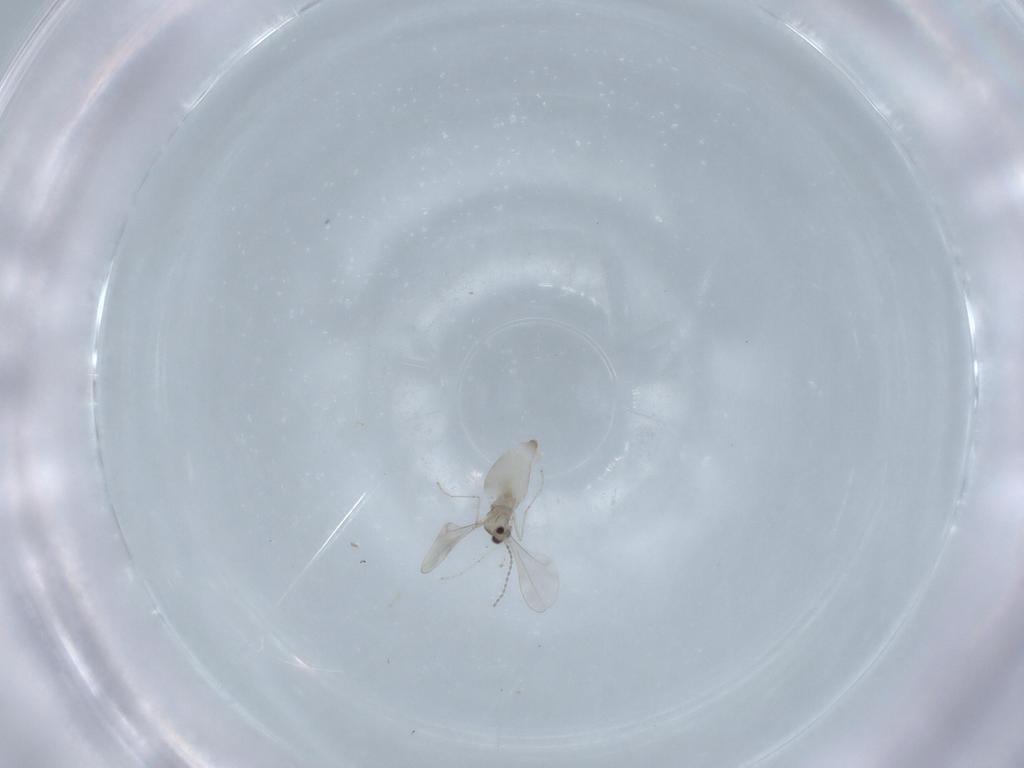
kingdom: Animalia
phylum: Arthropoda
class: Insecta
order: Diptera
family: Cecidomyiidae
